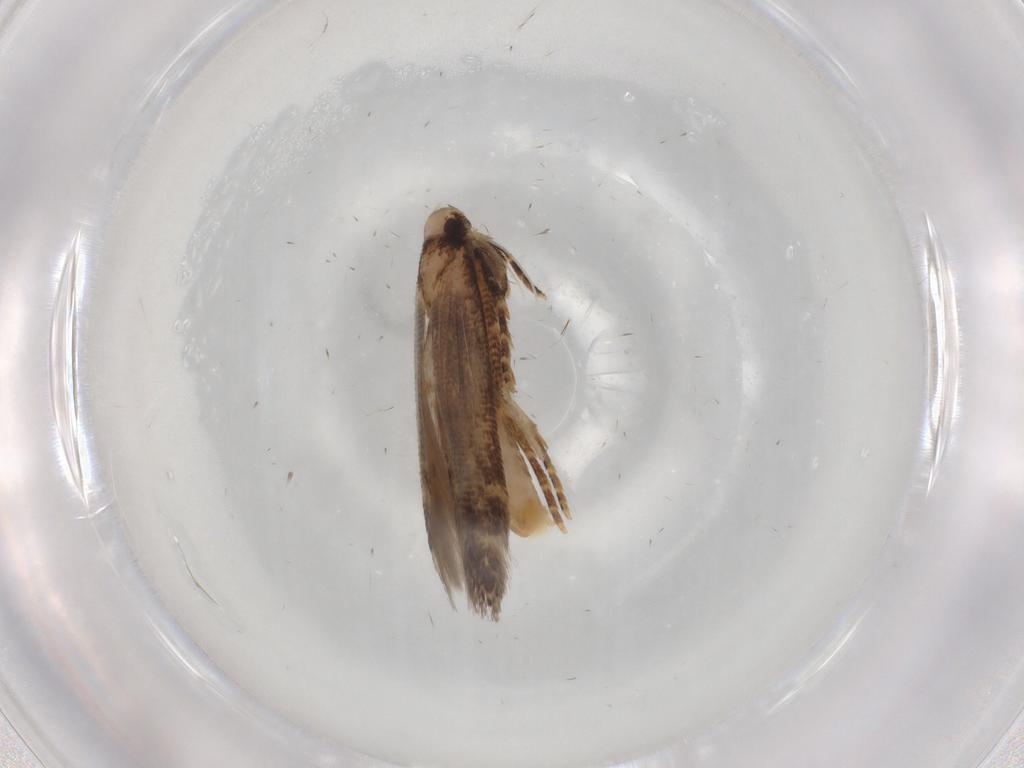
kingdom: Animalia
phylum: Arthropoda
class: Insecta
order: Lepidoptera
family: Cosmopterigidae
